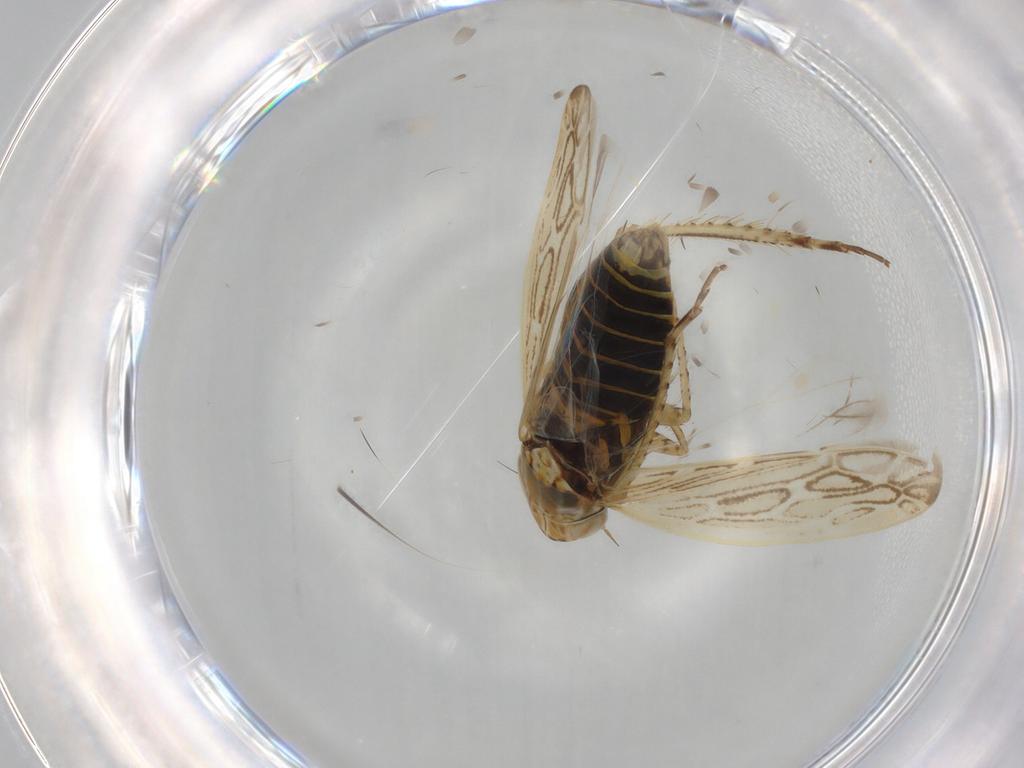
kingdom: Animalia
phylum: Arthropoda
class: Insecta
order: Hemiptera
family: Cicadellidae
